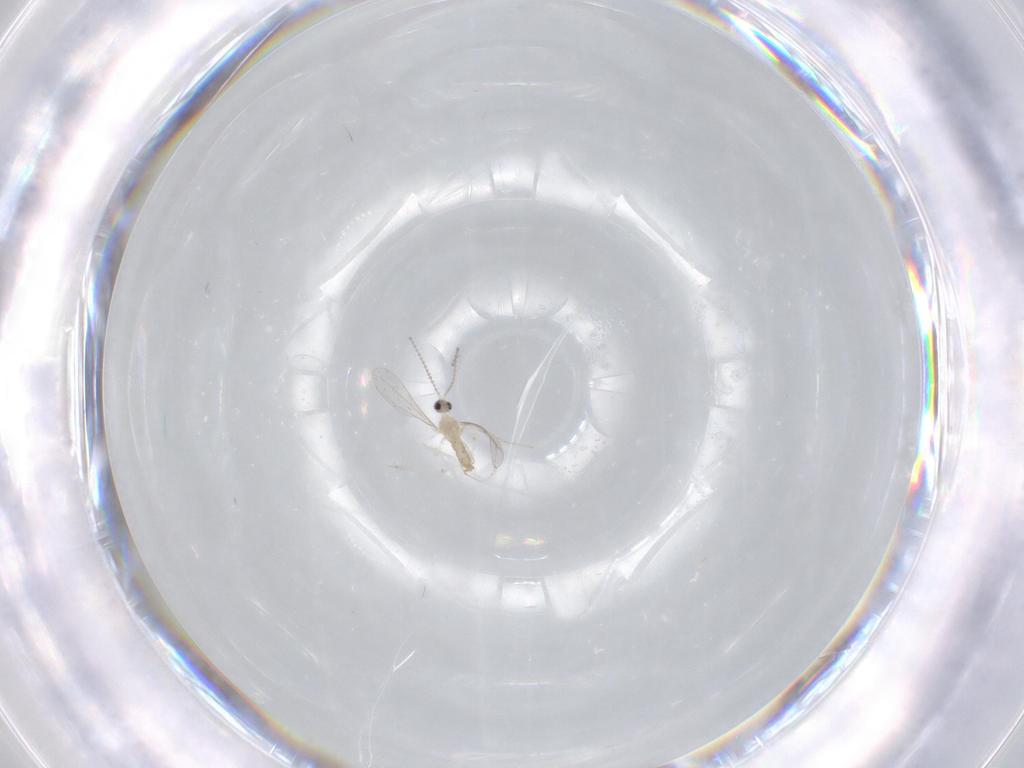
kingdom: Animalia
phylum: Arthropoda
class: Insecta
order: Diptera
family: Cecidomyiidae
